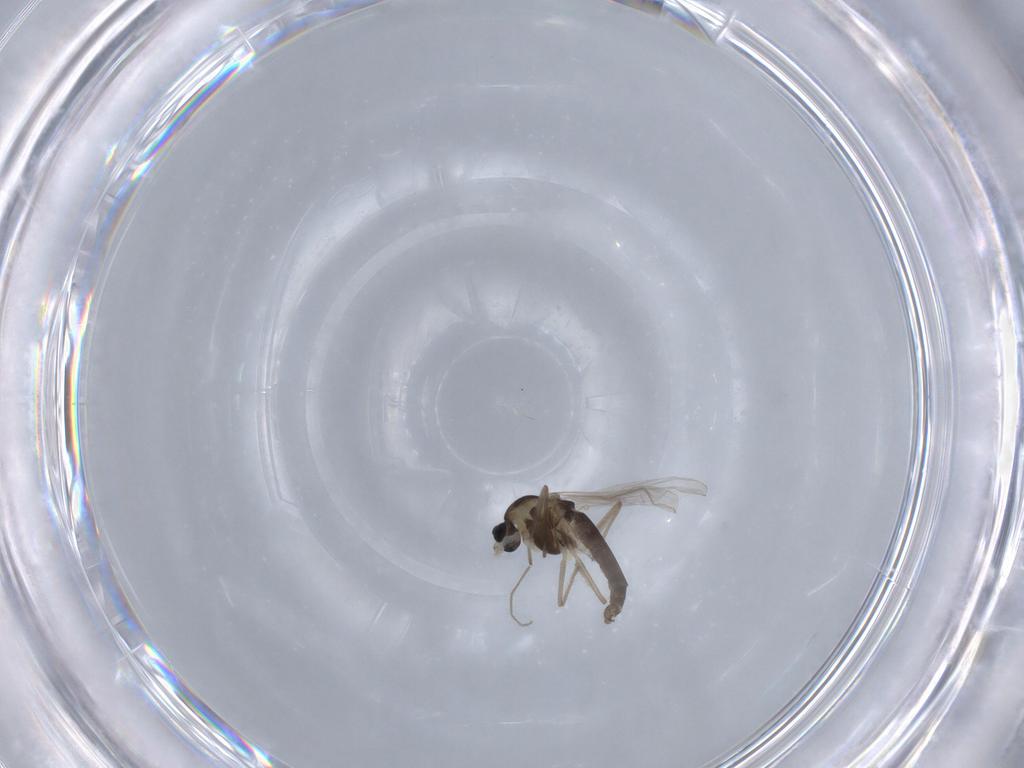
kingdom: Animalia
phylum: Arthropoda
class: Insecta
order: Diptera
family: Chironomidae
